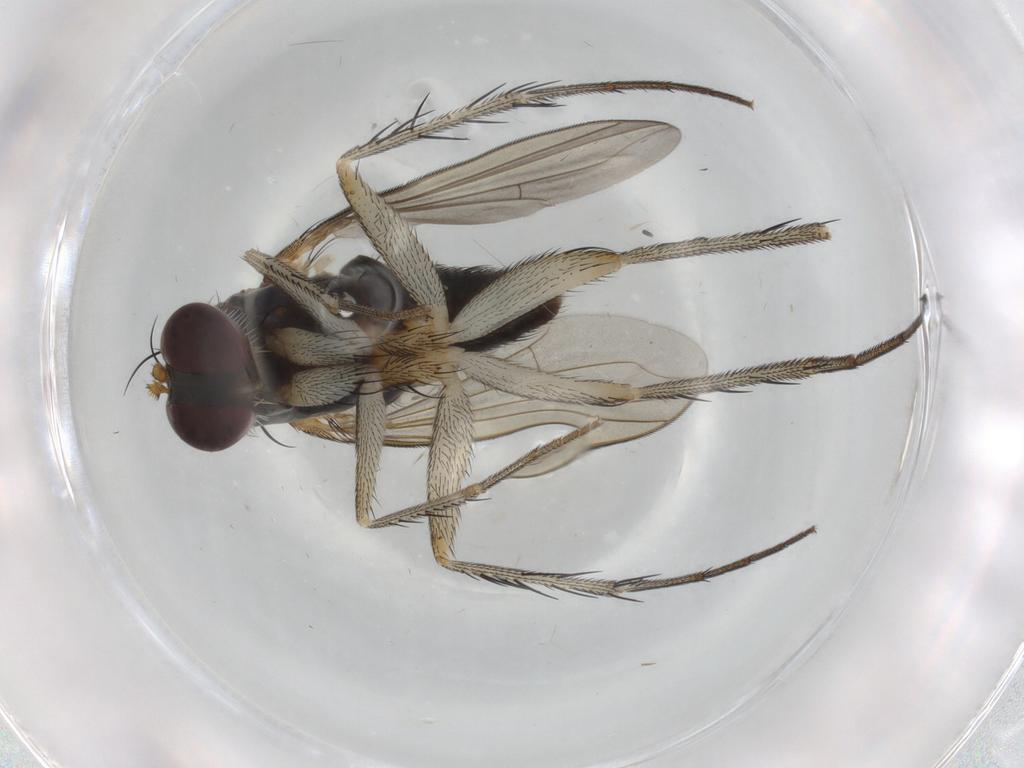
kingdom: Animalia
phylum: Arthropoda
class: Insecta
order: Diptera
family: Dolichopodidae
